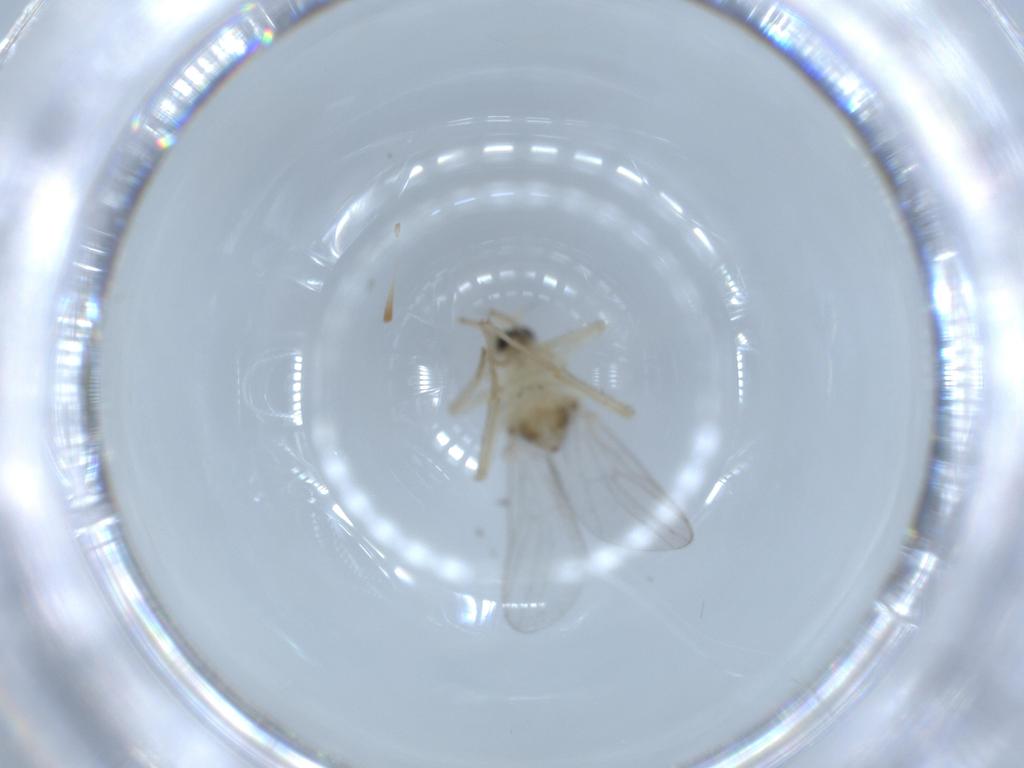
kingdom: Animalia
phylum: Arthropoda
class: Insecta
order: Diptera
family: Hybotidae
